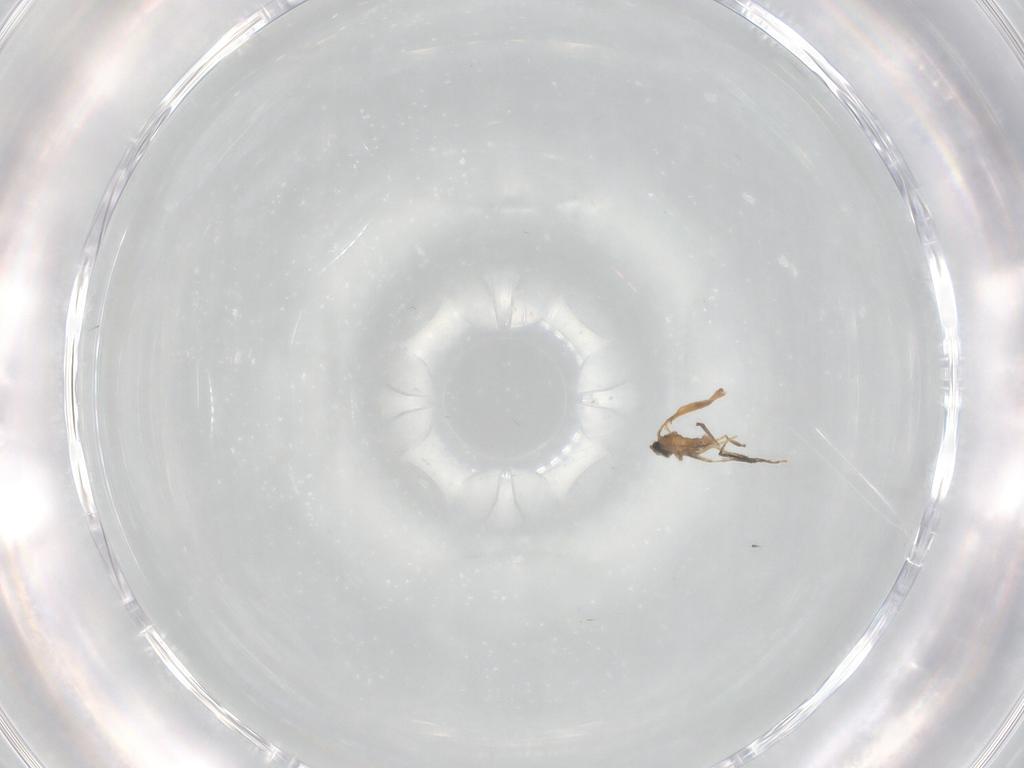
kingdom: Animalia
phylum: Arthropoda
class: Insecta
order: Diptera
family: Cecidomyiidae
